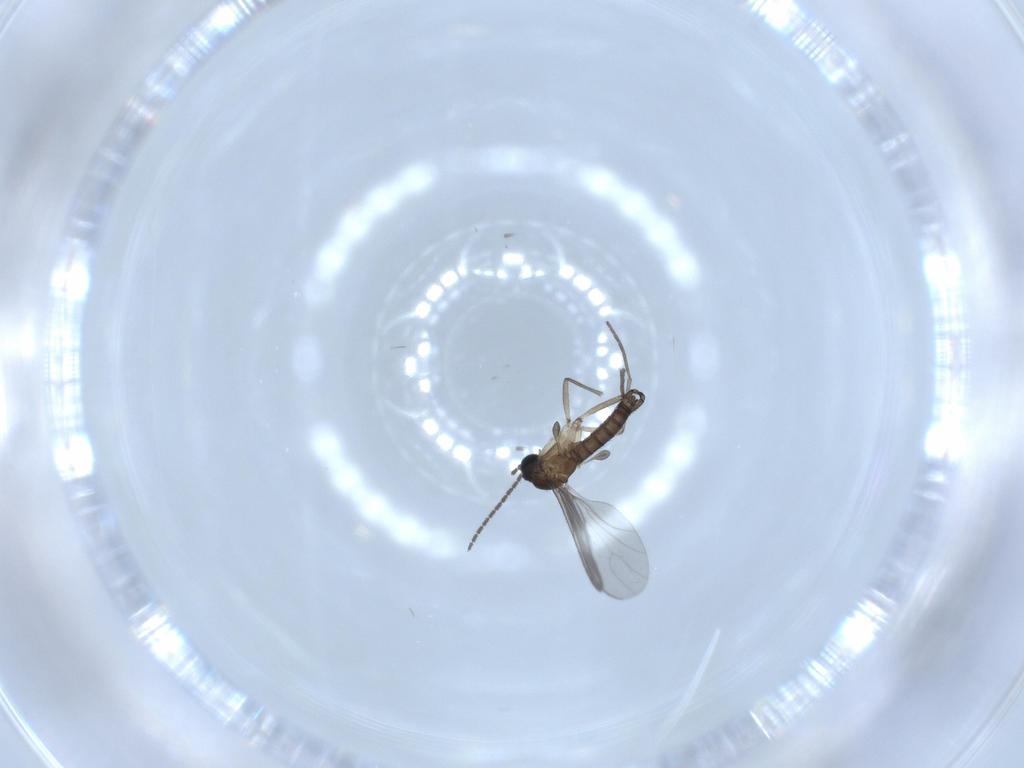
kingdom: Animalia
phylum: Arthropoda
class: Insecta
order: Diptera
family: Sciaridae
